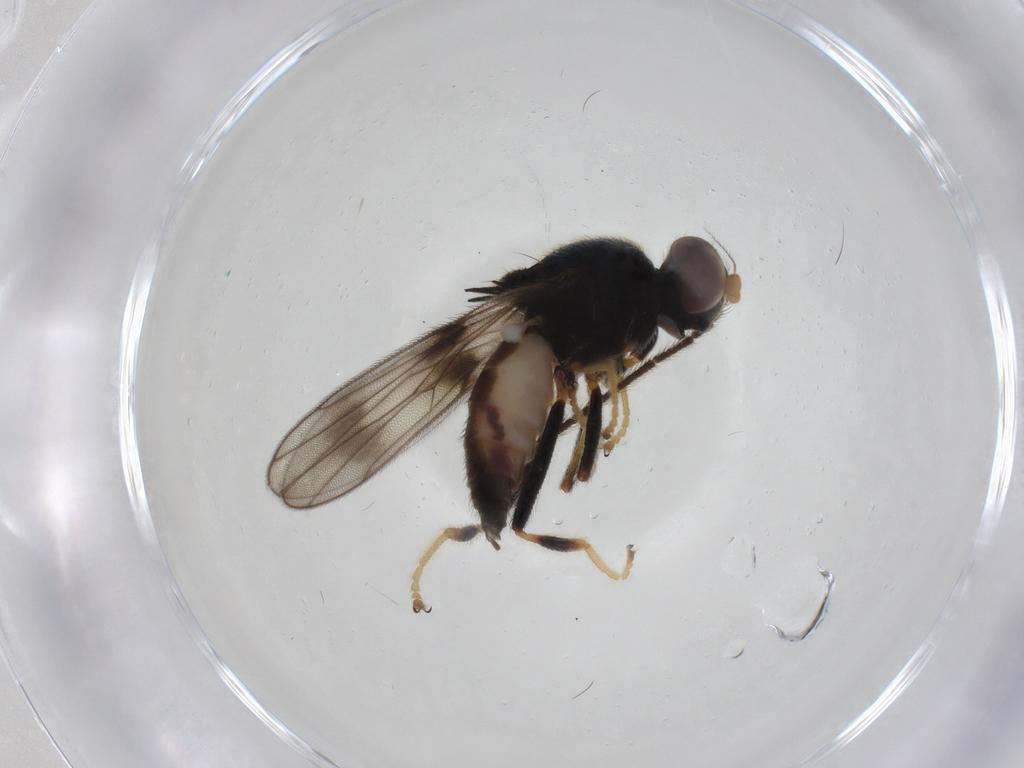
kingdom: Animalia
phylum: Arthropoda
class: Insecta
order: Diptera
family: Chloropidae
